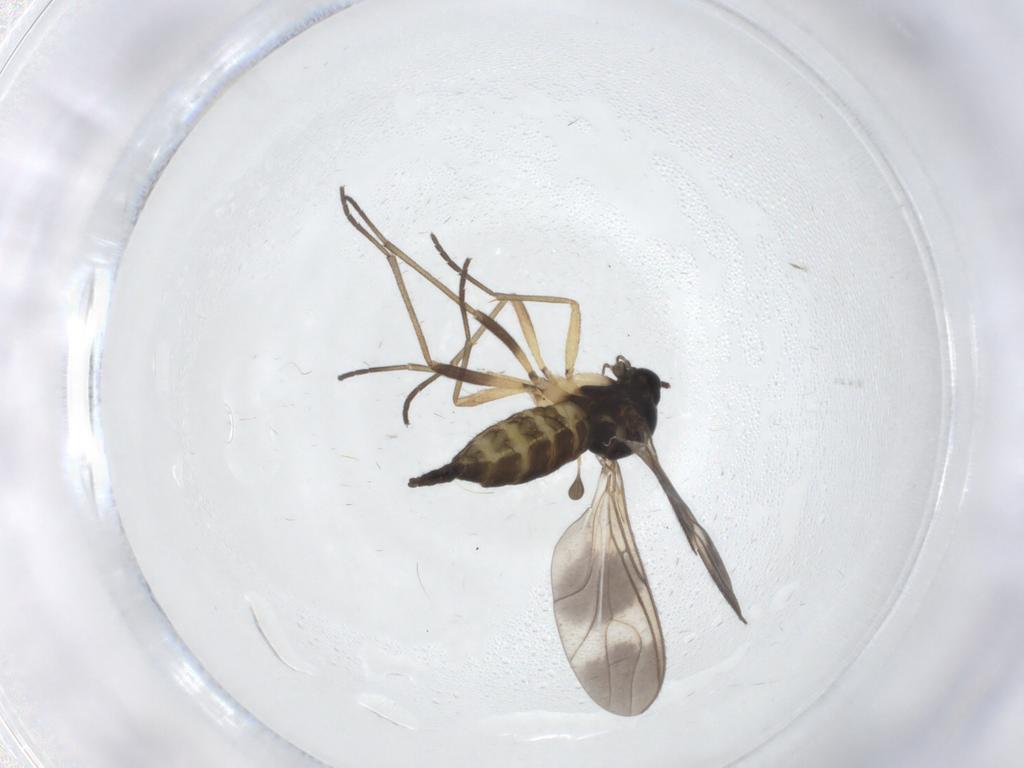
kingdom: Animalia
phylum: Arthropoda
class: Insecta
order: Diptera
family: Sciaridae
